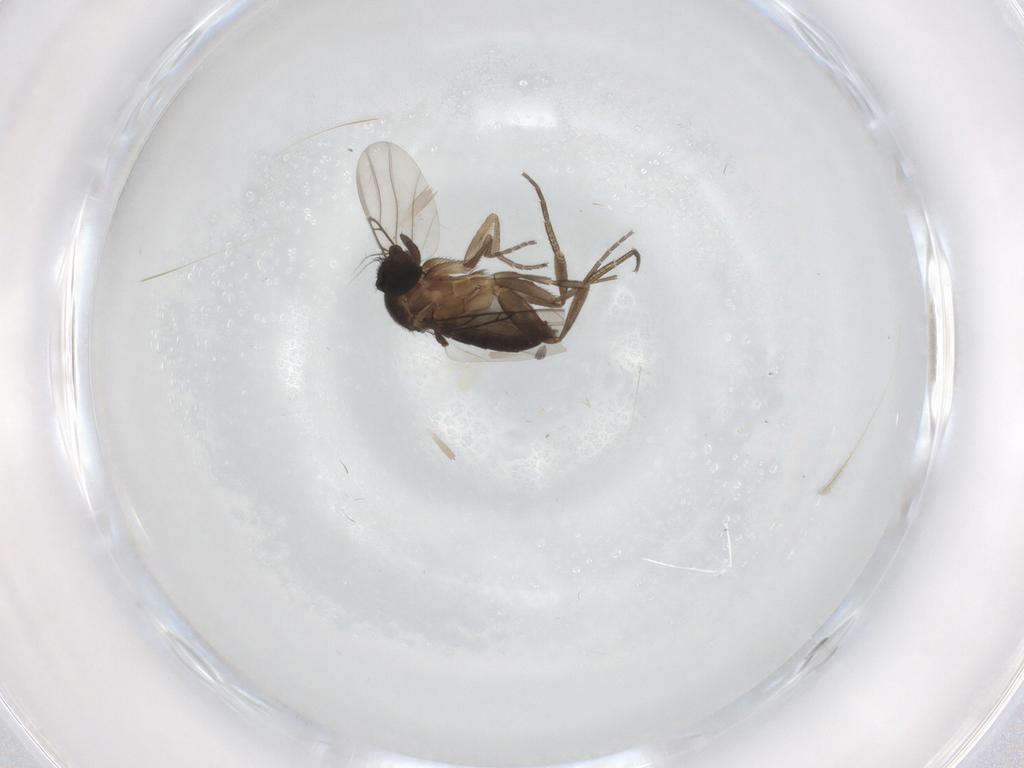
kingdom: Animalia
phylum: Arthropoda
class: Insecta
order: Diptera
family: Phoridae
